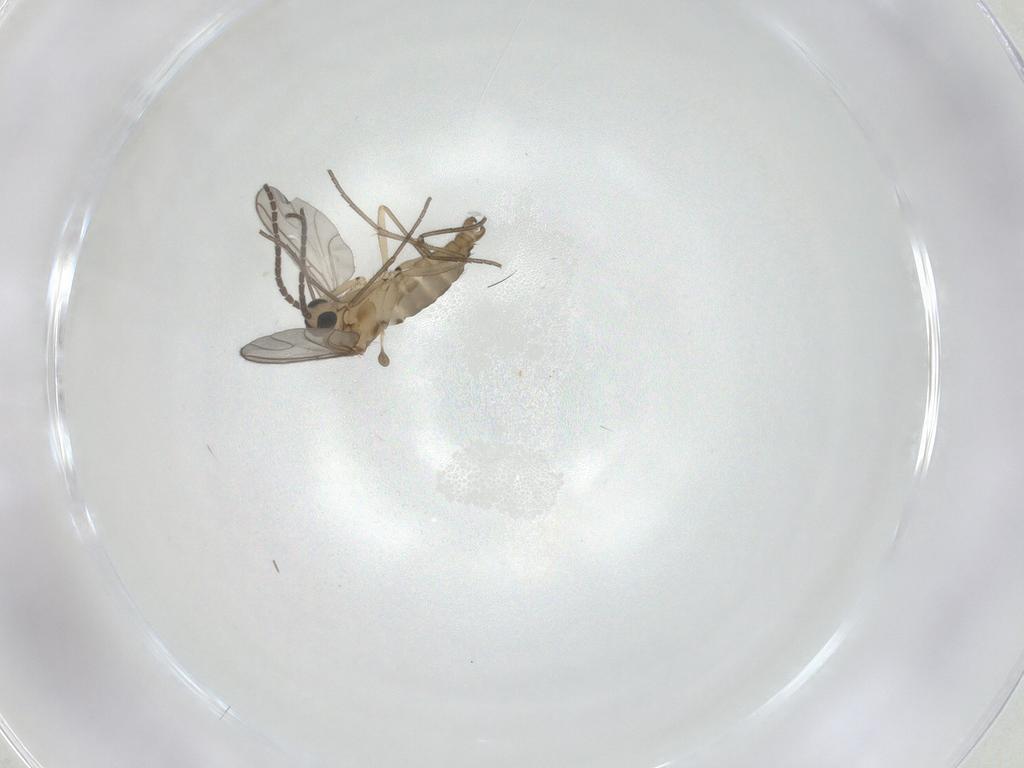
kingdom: Animalia
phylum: Arthropoda
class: Insecta
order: Diptera
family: Sciaridae
